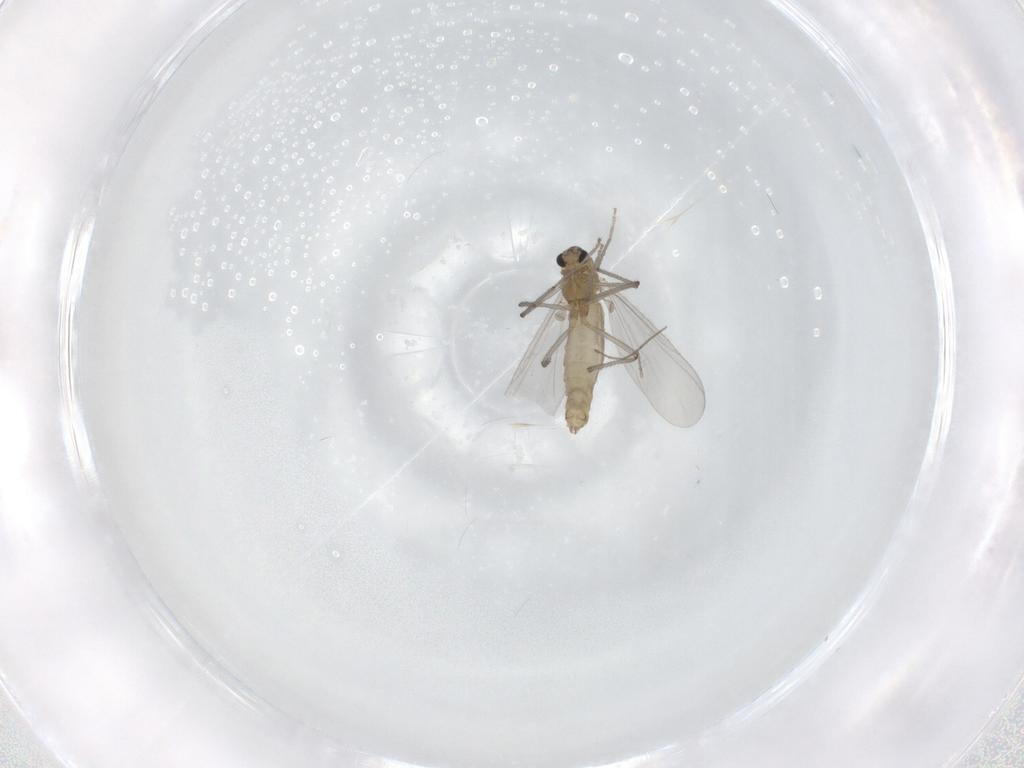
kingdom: Animalia
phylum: Arthropoda
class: Insecta
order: Diptera
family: Chironomidae
